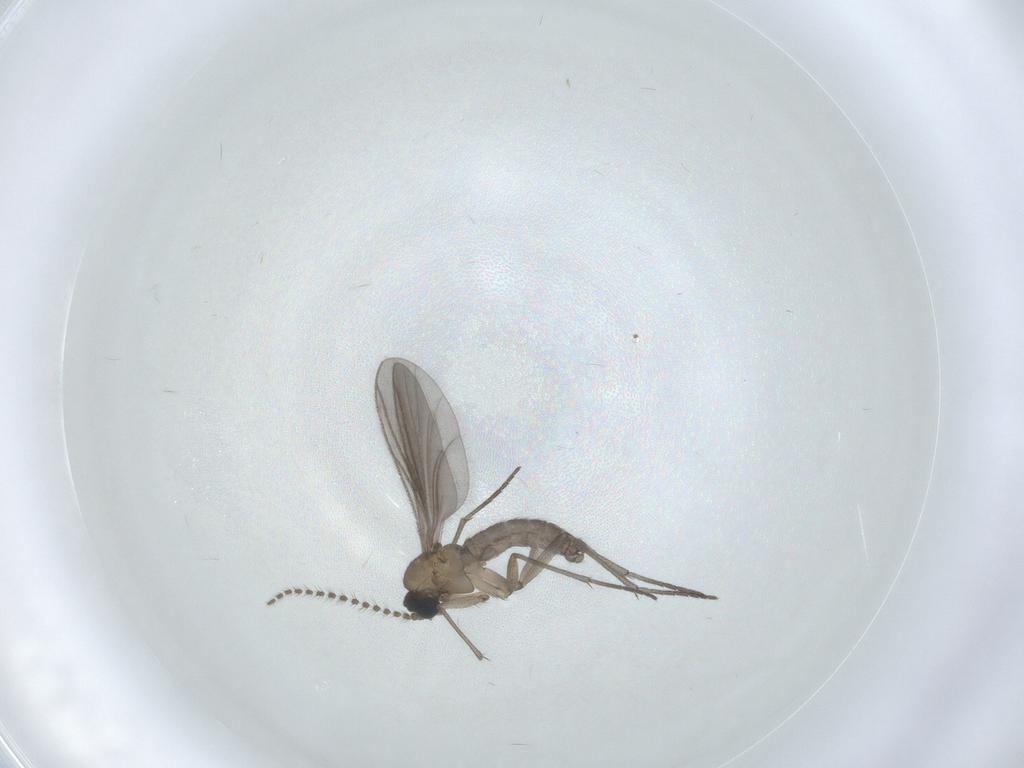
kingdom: Animalia
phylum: Arthropoda
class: Insecta
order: Diptera
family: Sciaridae
